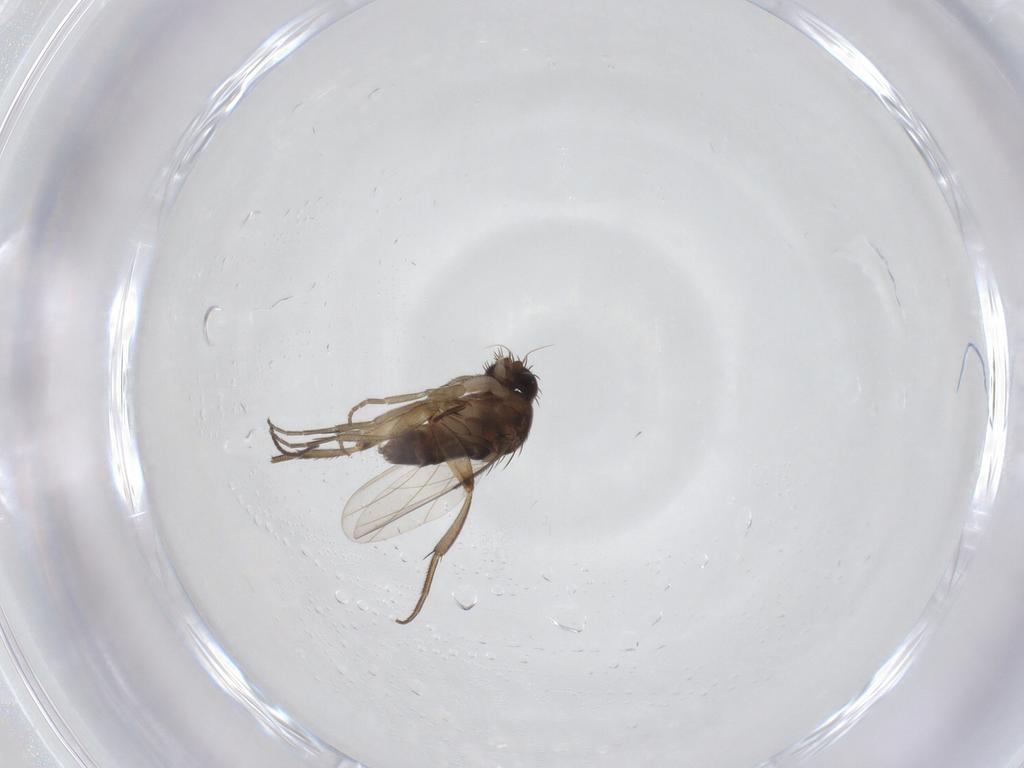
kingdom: Animalia
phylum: Arthropoda
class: Insecta
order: Diptera
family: Phoridae
